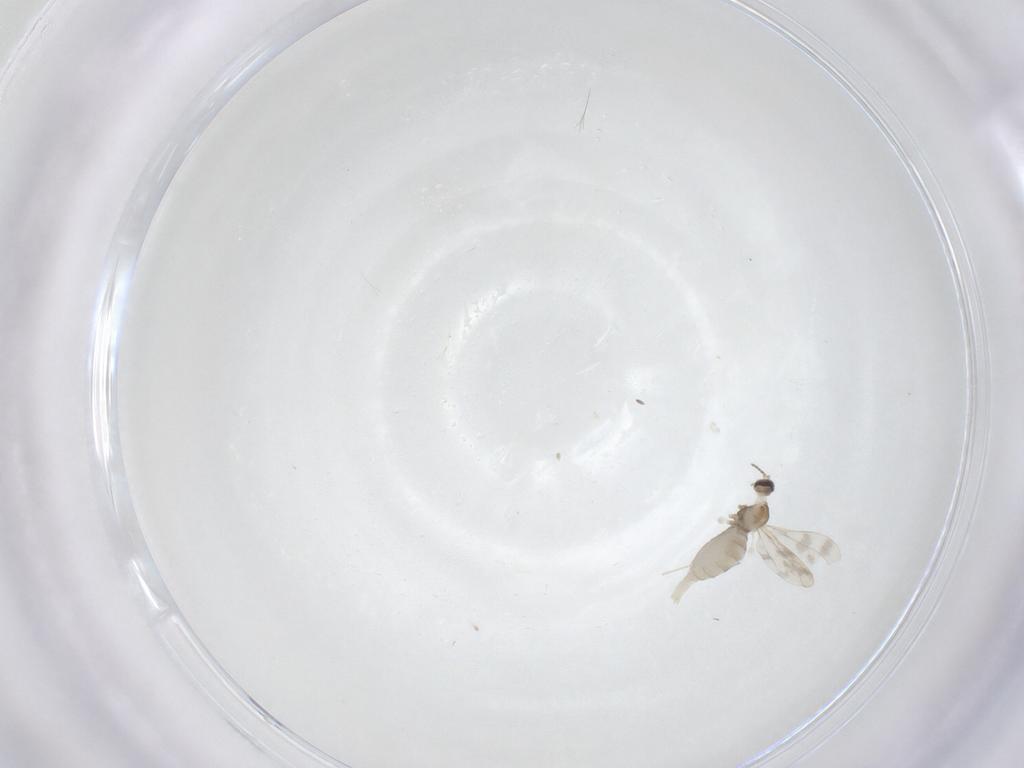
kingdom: Animalia
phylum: Arthropoda
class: Insecta
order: Diptera
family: Cecidomyiidae
